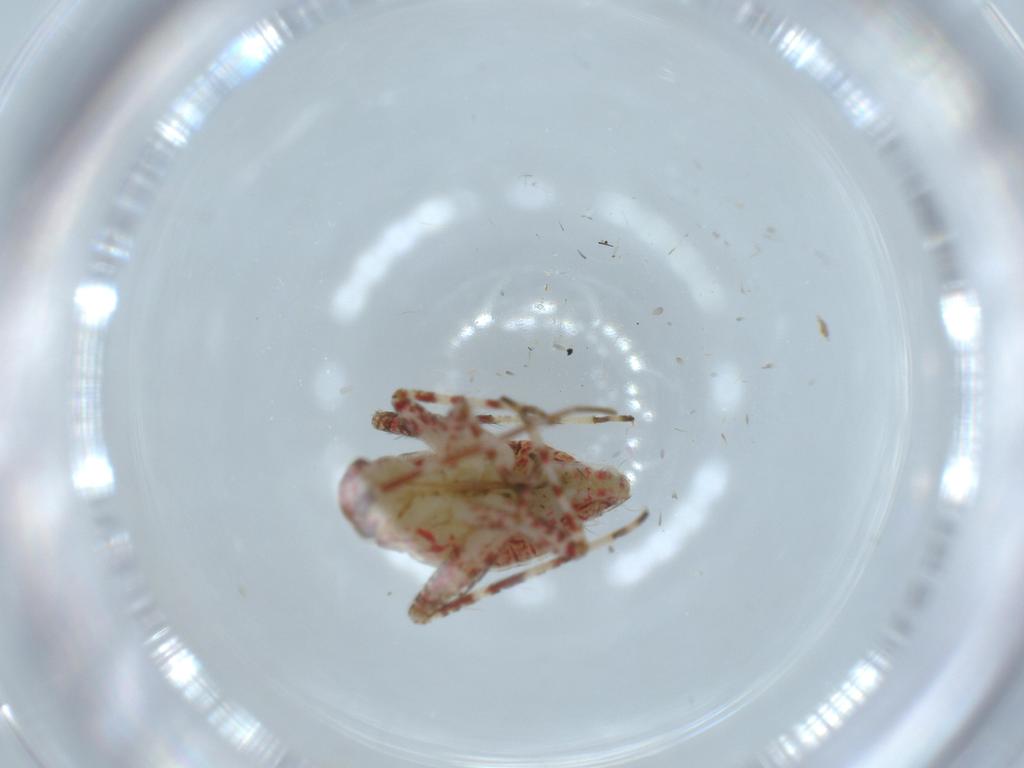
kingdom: Animalia
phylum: Arthropoda
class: Insecta
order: Hemiptera
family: Miridae
